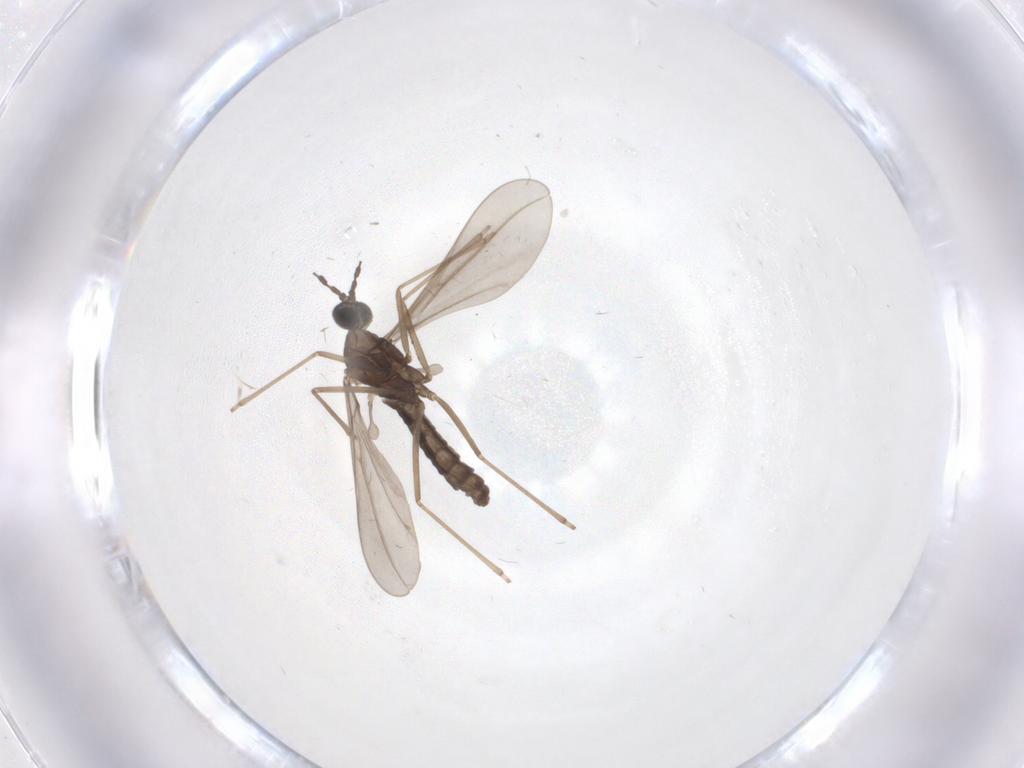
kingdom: Animalia
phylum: Arthropoda
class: Insecta
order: Diptera
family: Cecidomyiidae
